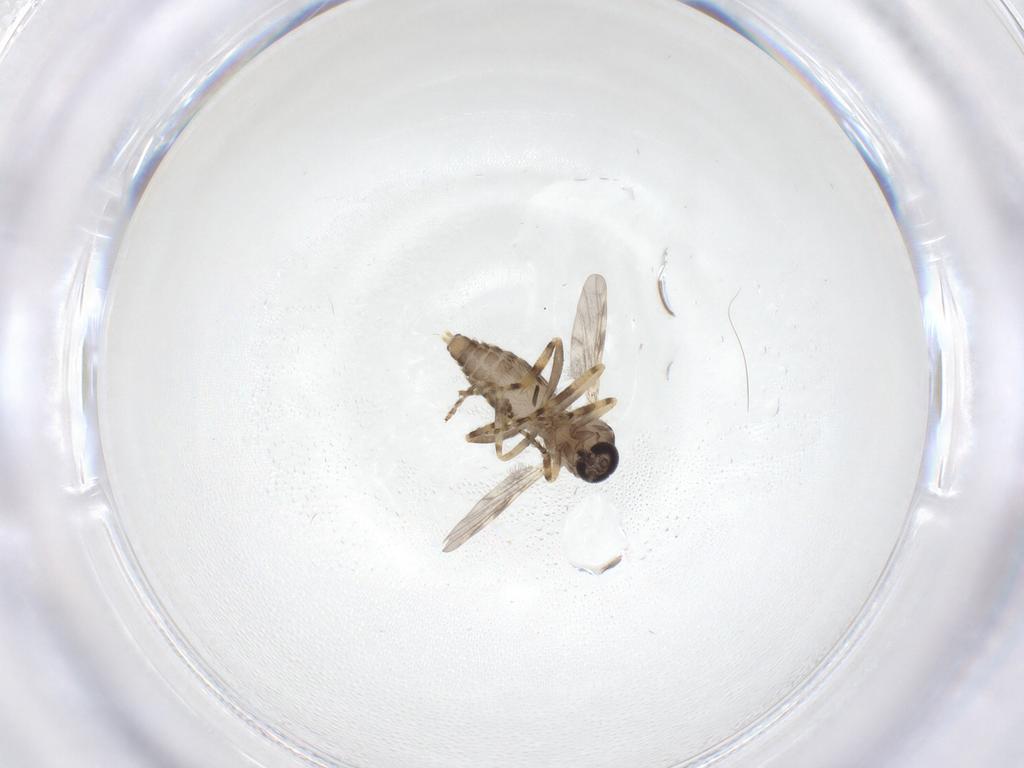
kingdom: Animalia
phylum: Arthropoda
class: Insecta
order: Diptera
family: Ceratopogonidae
